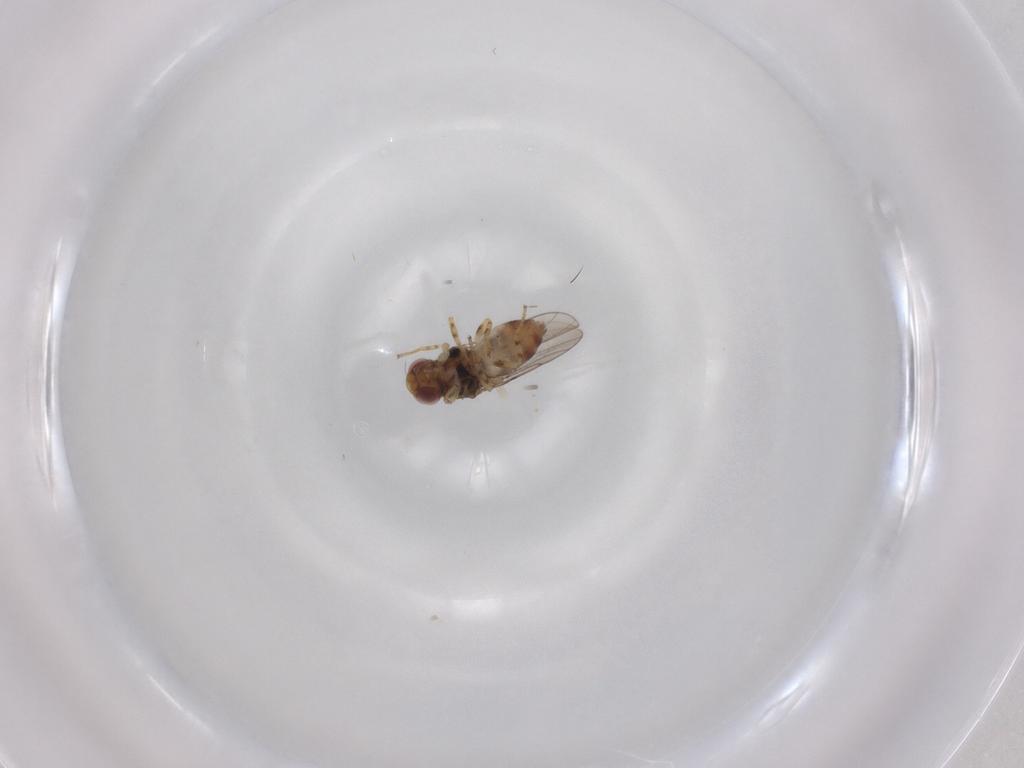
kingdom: Animalia
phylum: Arthropoda
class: Insecta
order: Diptera
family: Chloropidae
